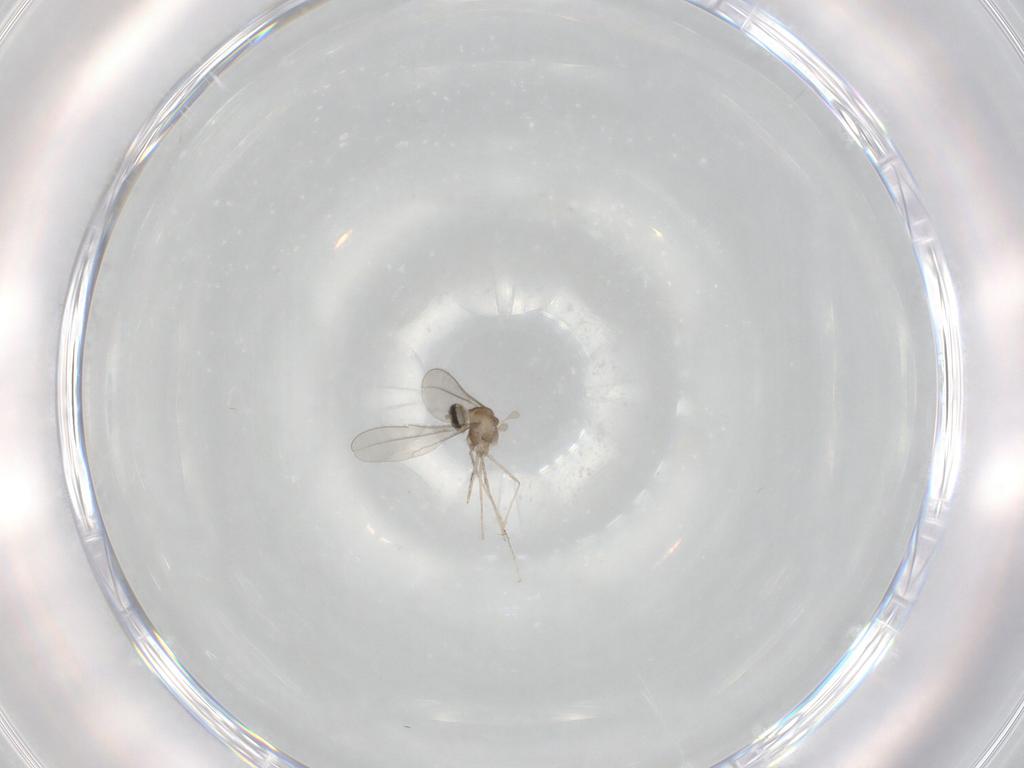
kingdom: Animalia
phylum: Arthropoda
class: Insecta
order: Diptera
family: Cecidomyiidae
